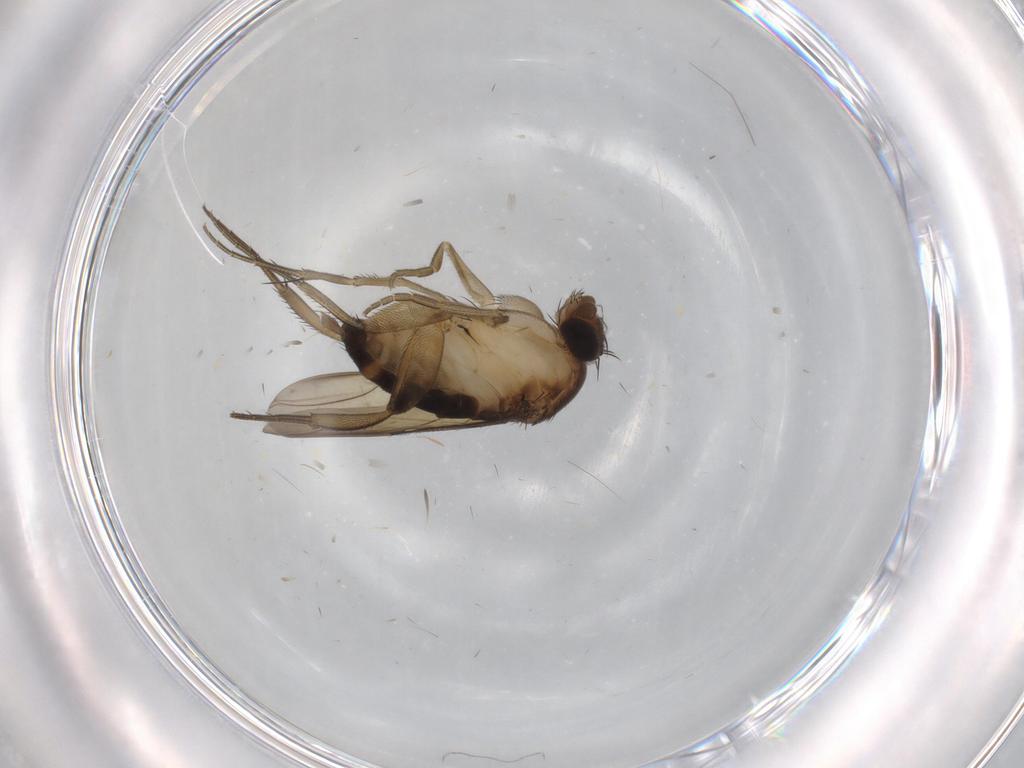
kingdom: Animalia
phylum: Arthropoda
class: Insecta
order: Diptera
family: Phoridae
